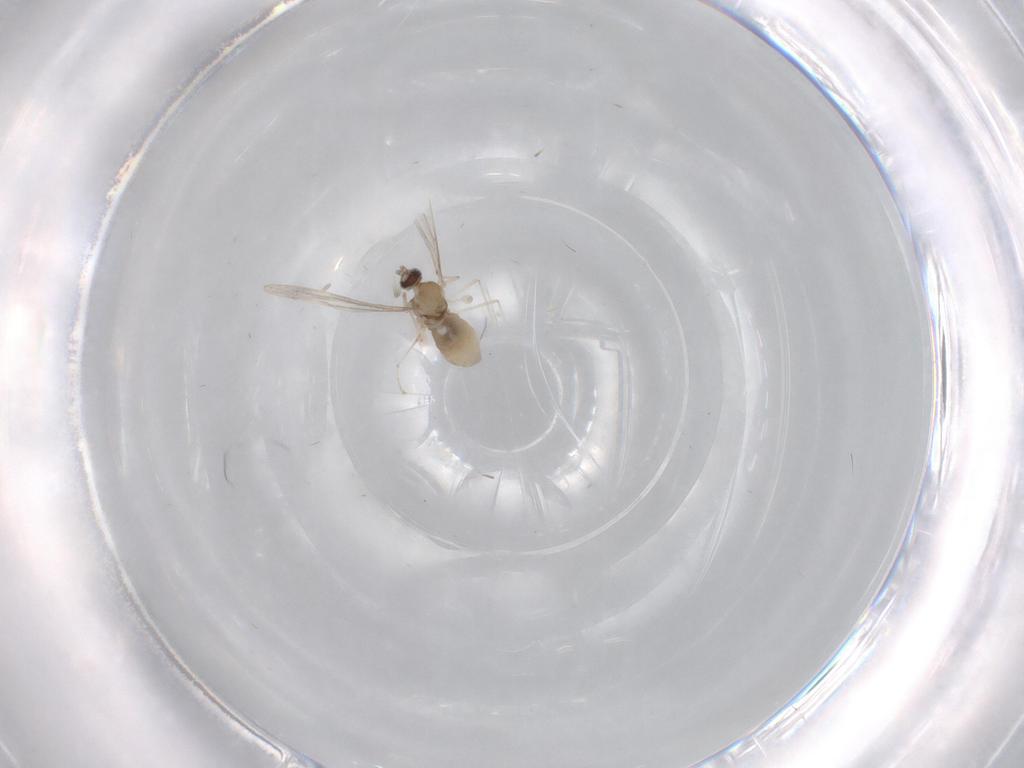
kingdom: Animalia
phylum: Arthropoda
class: Insecta
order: Diptera
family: Cecidomyiidae
